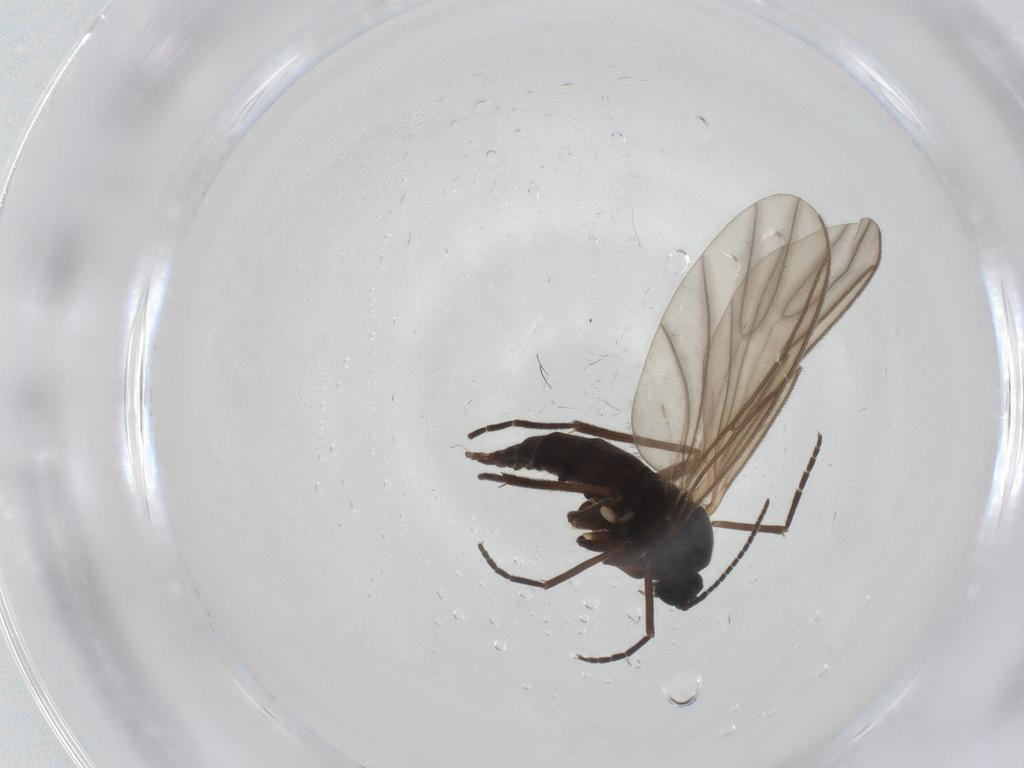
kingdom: Animalia
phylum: Arthropoda
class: Insecta
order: Diptera
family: Sciaridae
